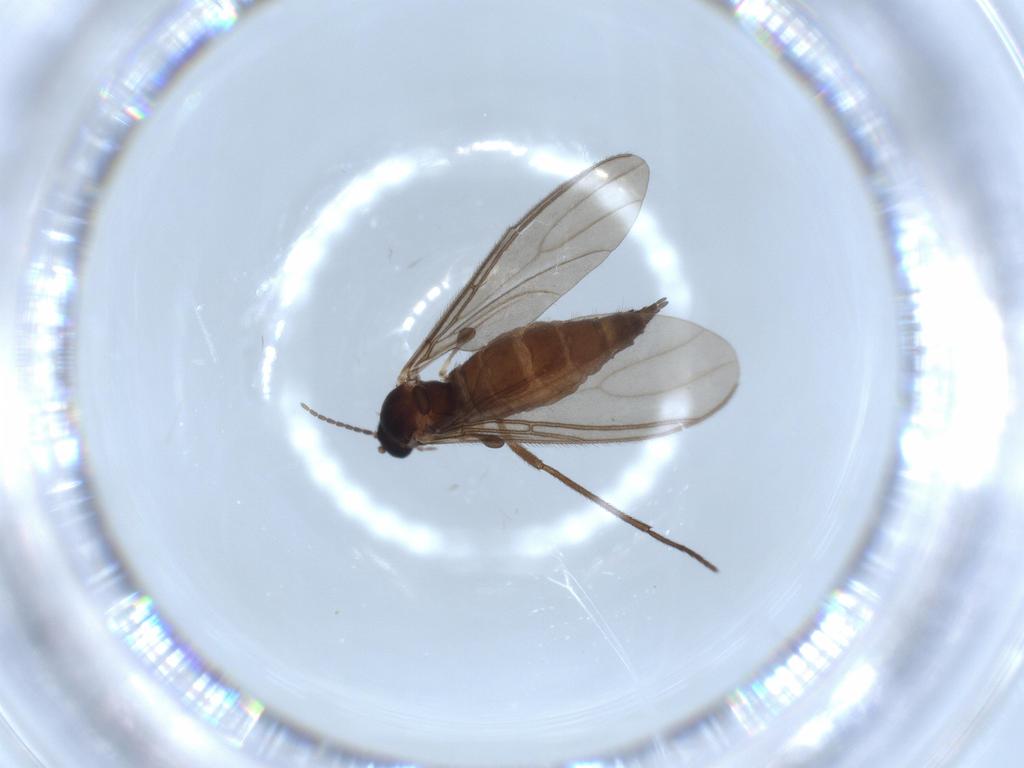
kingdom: Animalia
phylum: Arthropoda
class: Insecta
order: Diptera
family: Sciaridae
